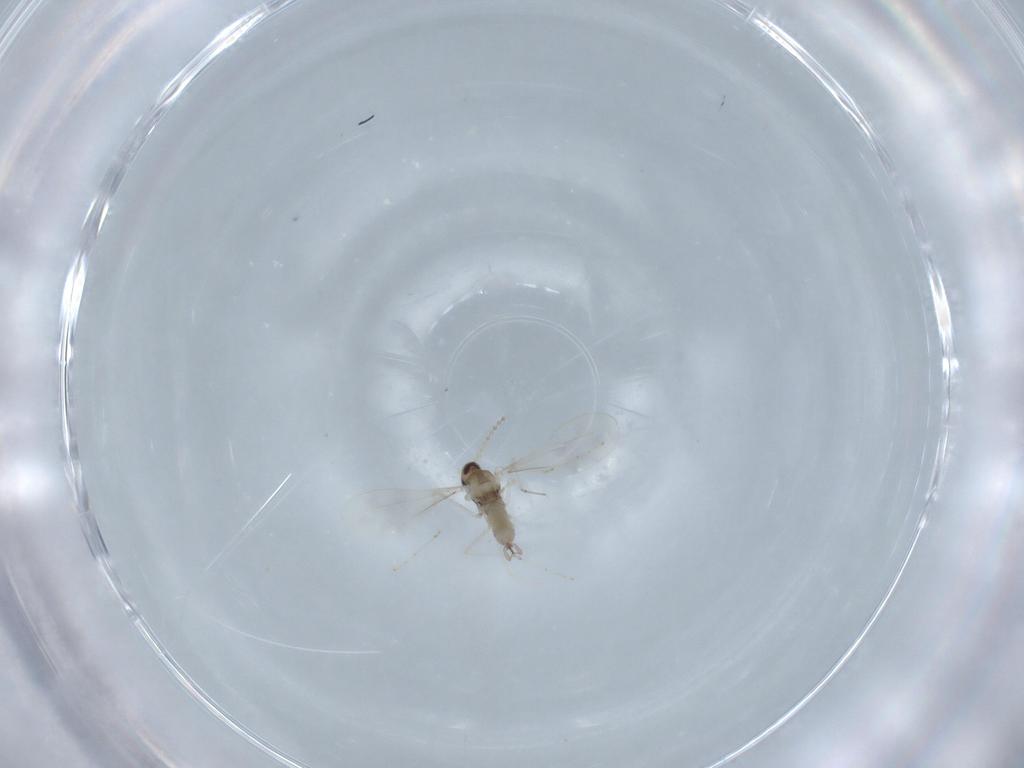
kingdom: Animalia
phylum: Arthropoda
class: Insecta
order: Diptera
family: Cecidomyiidae
